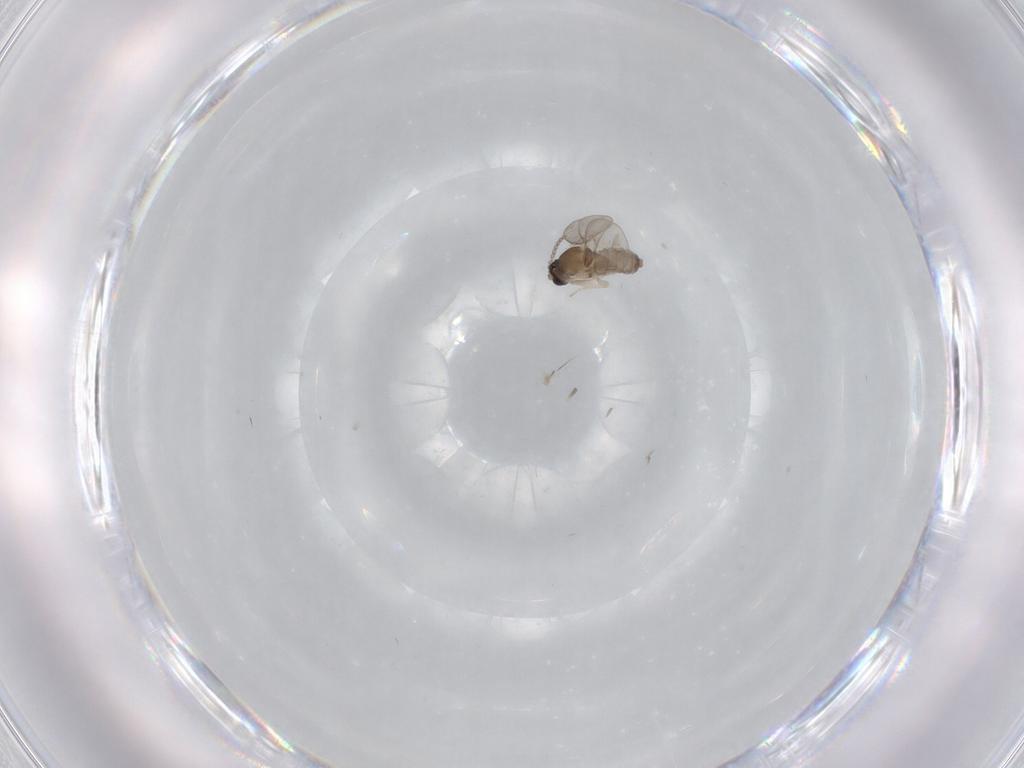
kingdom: Animalia
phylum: Arthropoda
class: Insecta
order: Diptera
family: Cecidomyiidae
